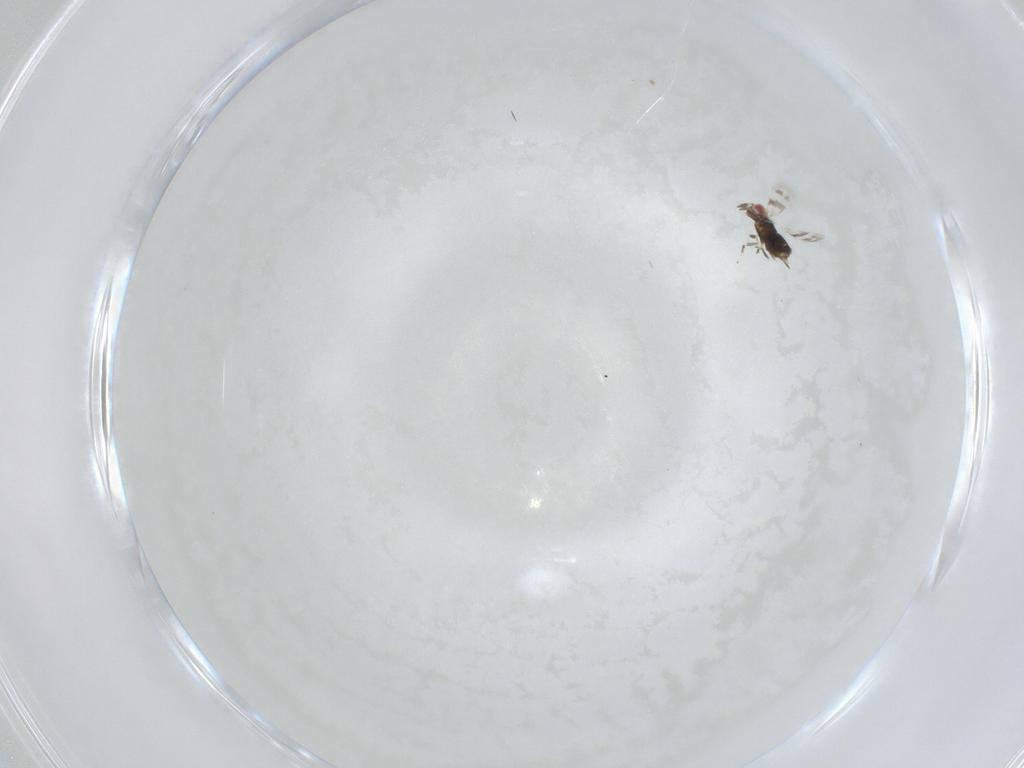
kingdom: Animalia
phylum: Arthropoda
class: Insecta
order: Hymenoptera
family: Azotidae
